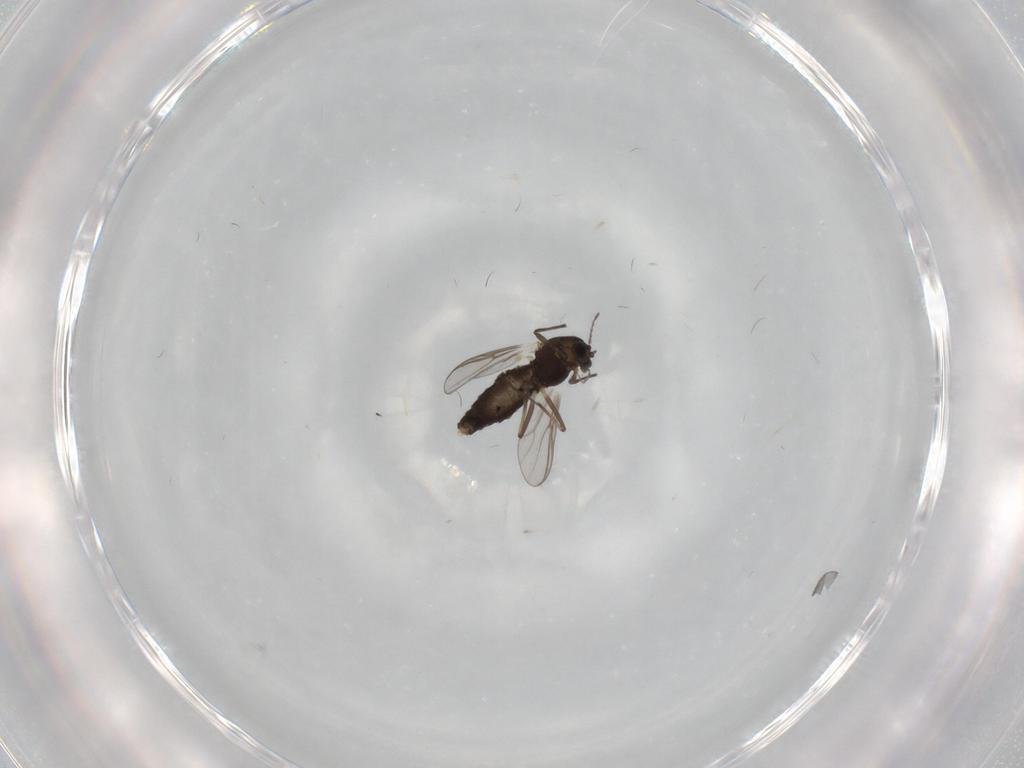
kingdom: Animalia
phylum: Arthropoda
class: Insecta
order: Diptera
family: Chironomidae
